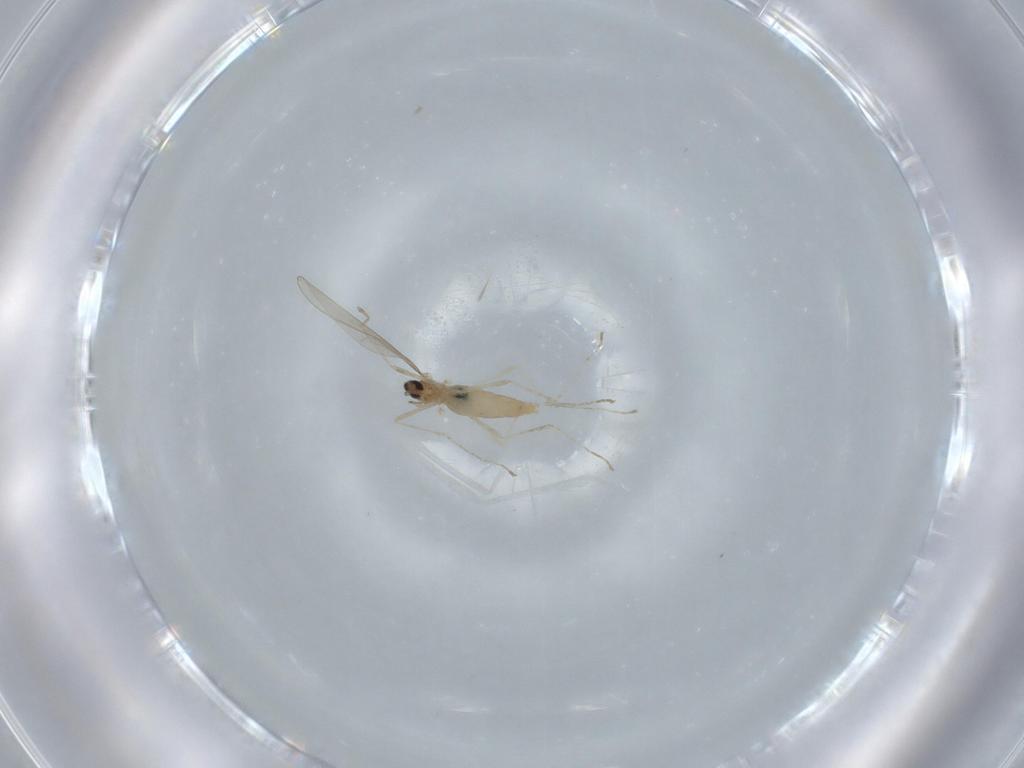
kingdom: Animalia
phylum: Arthropoda
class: Insecta
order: Diptera
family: Cecidomyiidae
